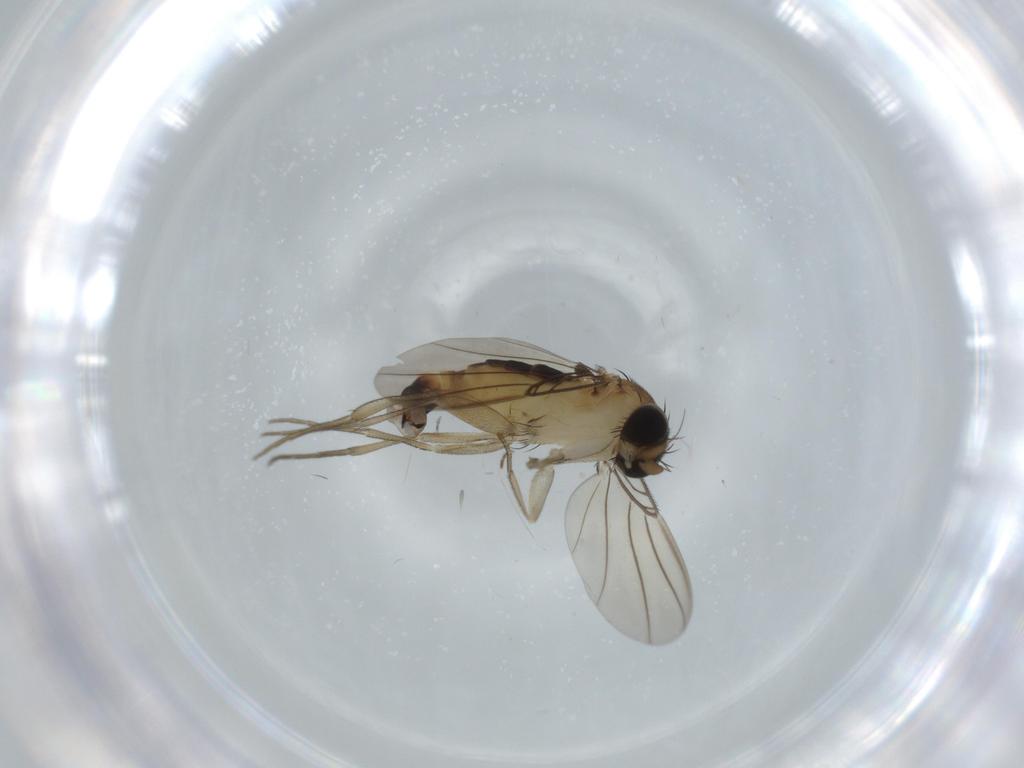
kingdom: Animalia
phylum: Arthropoda
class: Insecta
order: Diptera
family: Phoridae
